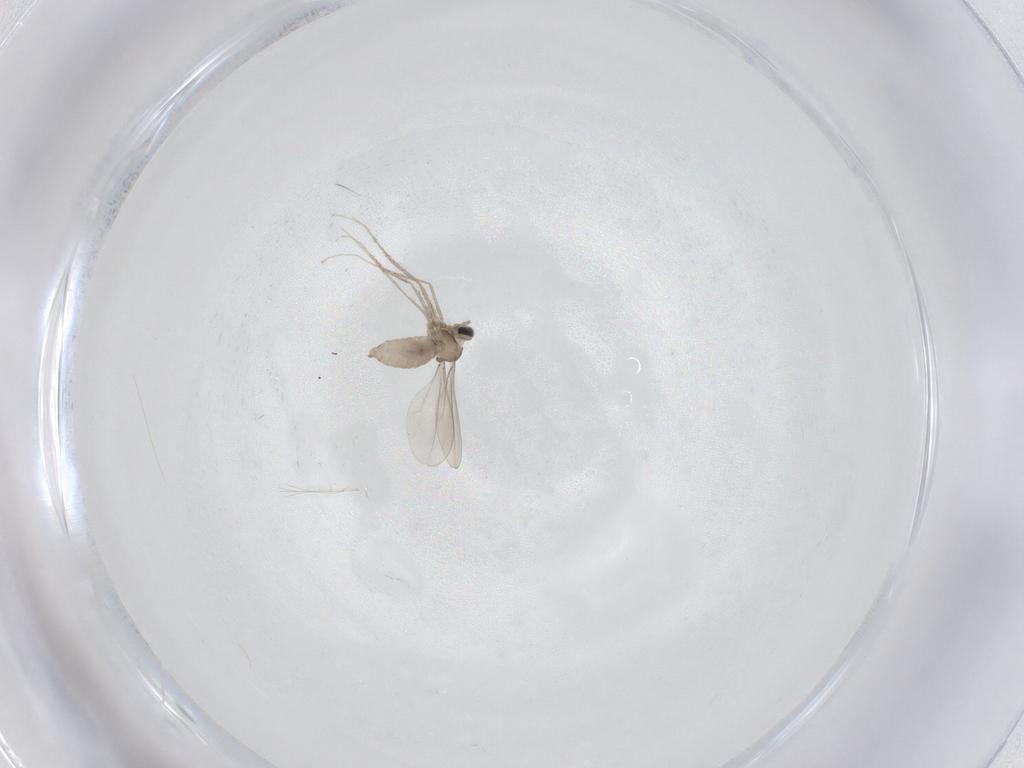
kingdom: Animalia
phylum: Arthropoda
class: Insecta
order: Diptera
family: Cecidomyiidae
